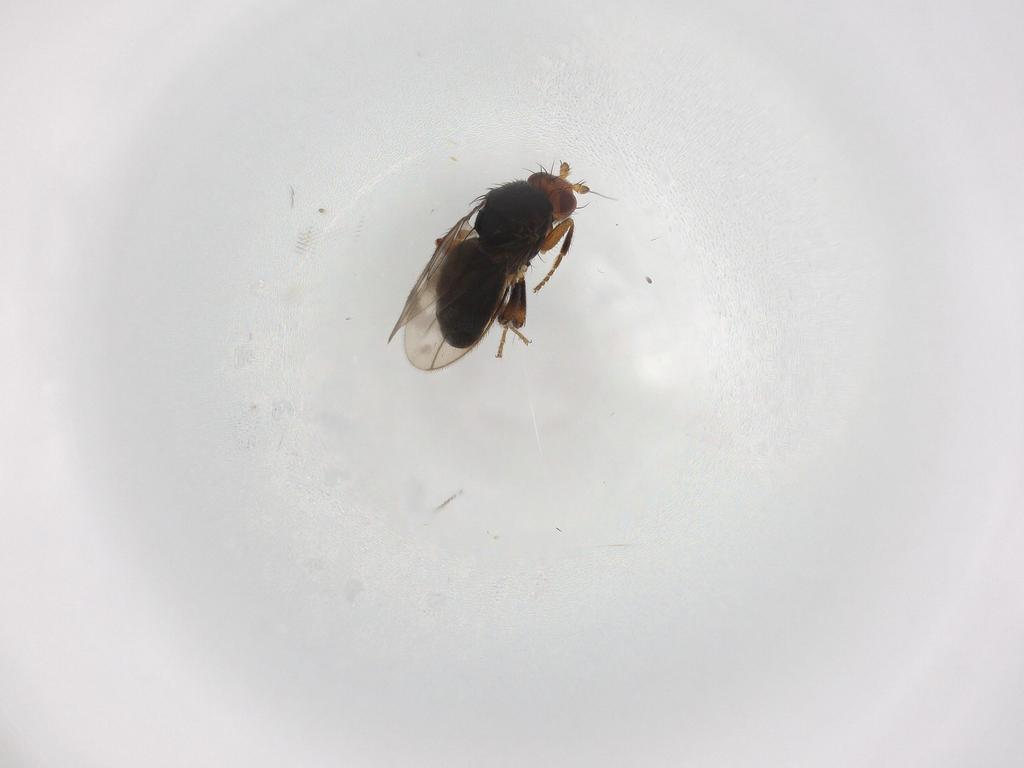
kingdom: Animalia
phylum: Arthropoda
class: Insecta
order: Diptera
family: Sphaeroceridae
